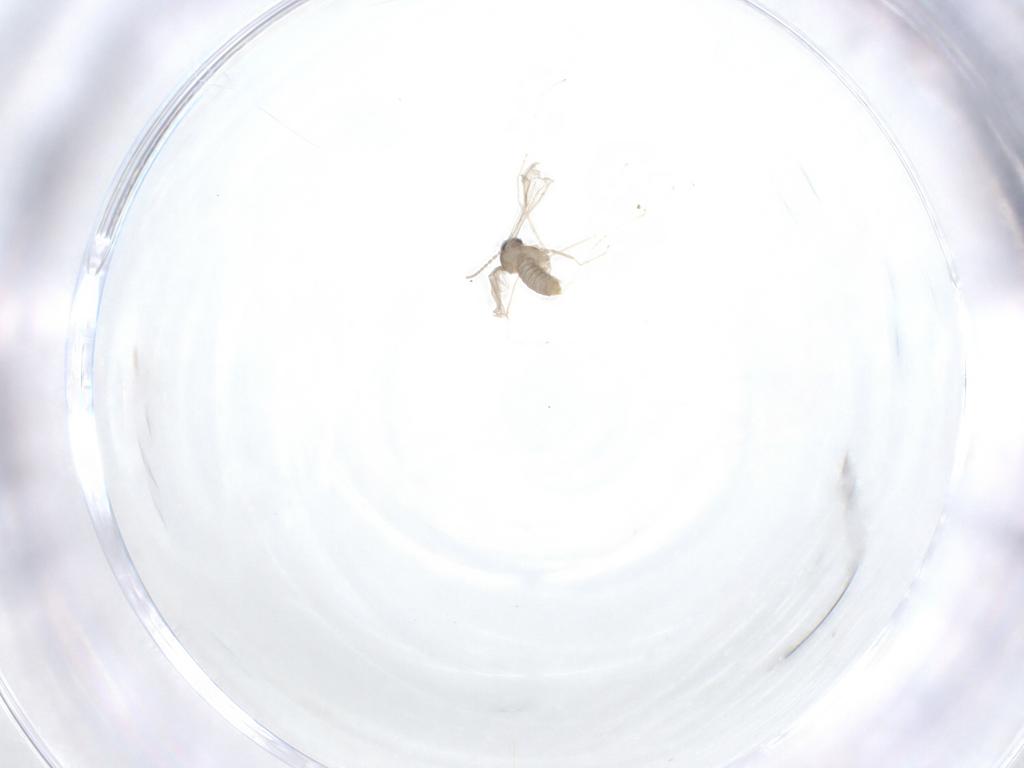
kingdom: Animalia
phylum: Arthropoda
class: Insecta
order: Diptera
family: Cecidomyiidae
